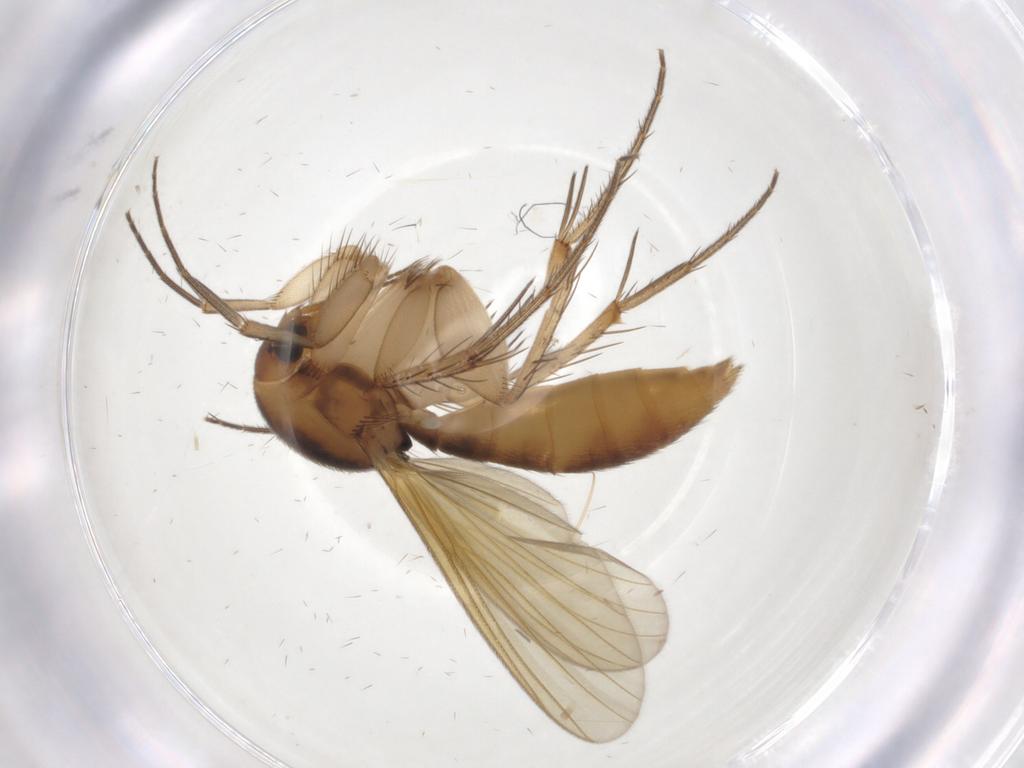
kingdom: Animalia
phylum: Arthropoda
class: Insecta
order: Diptera
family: Mycetophilidae
